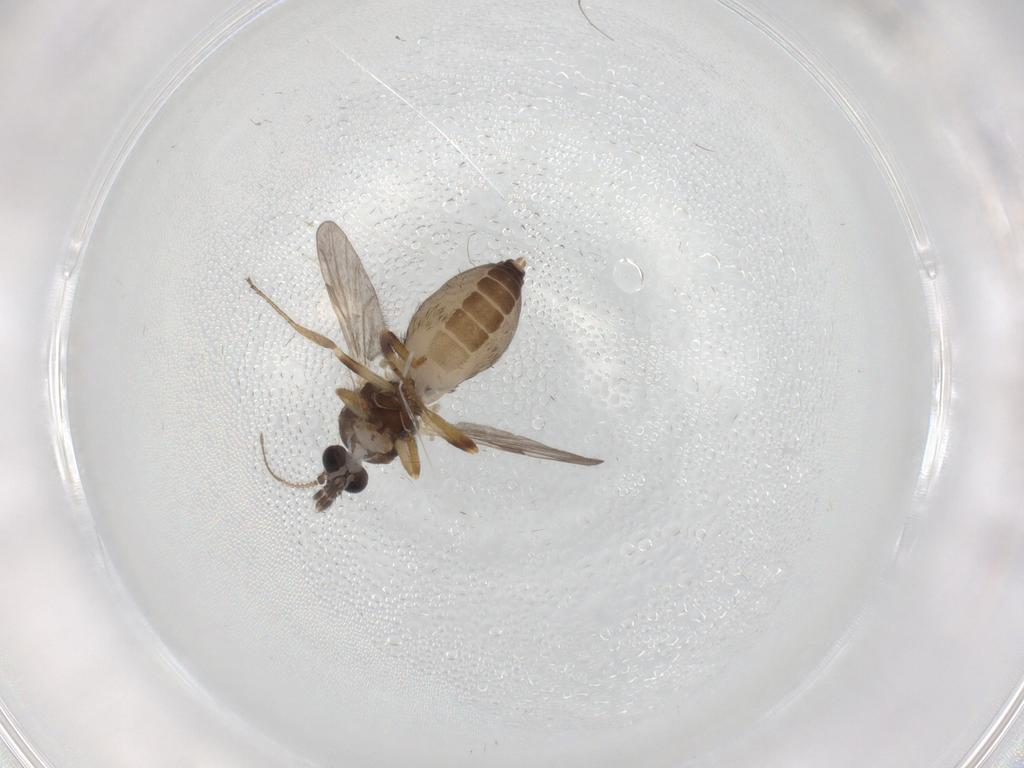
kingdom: Animalia
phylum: Arthropoda
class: Insecta
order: Diptera
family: Ceratopogonidae
